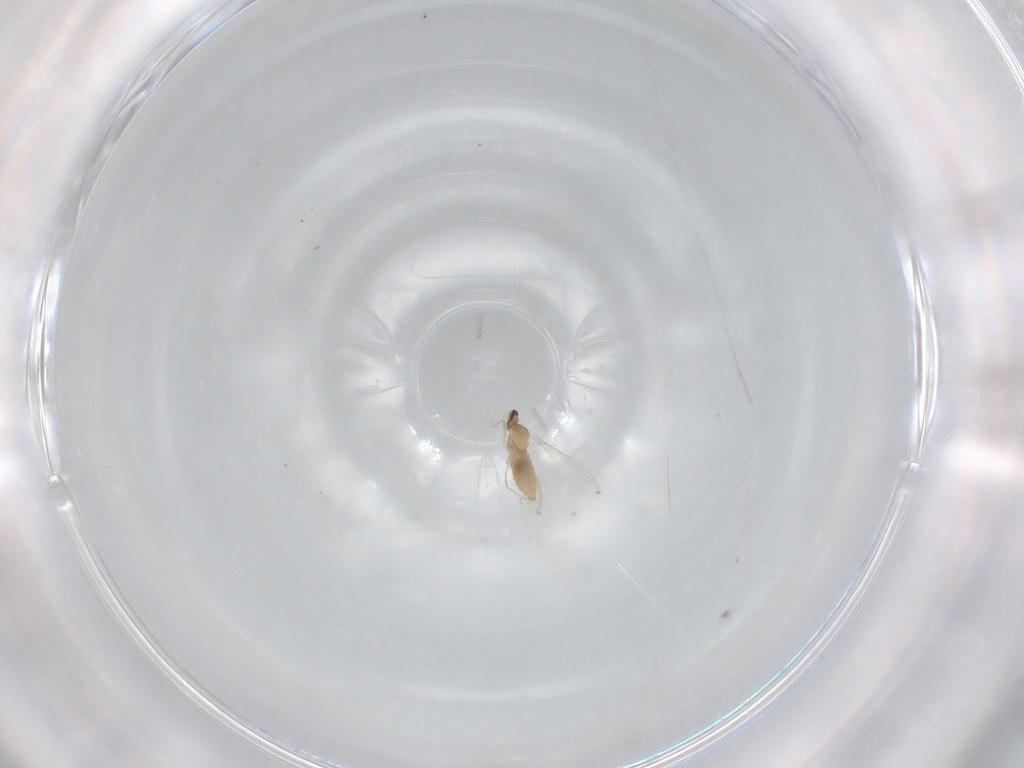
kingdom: Animalia
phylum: Arthropoda
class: Insecta
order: Diptera
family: Cecidomyiidae
